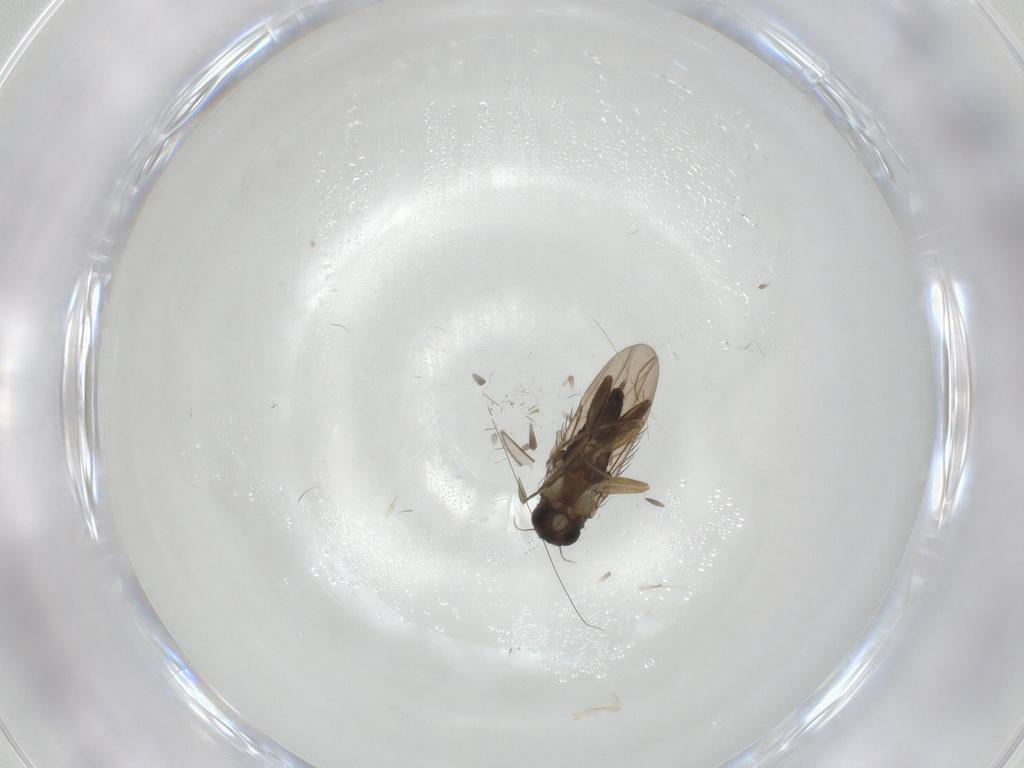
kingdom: Animalia
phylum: Arthropoda
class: Insecta
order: Diptera
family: Phoridae
